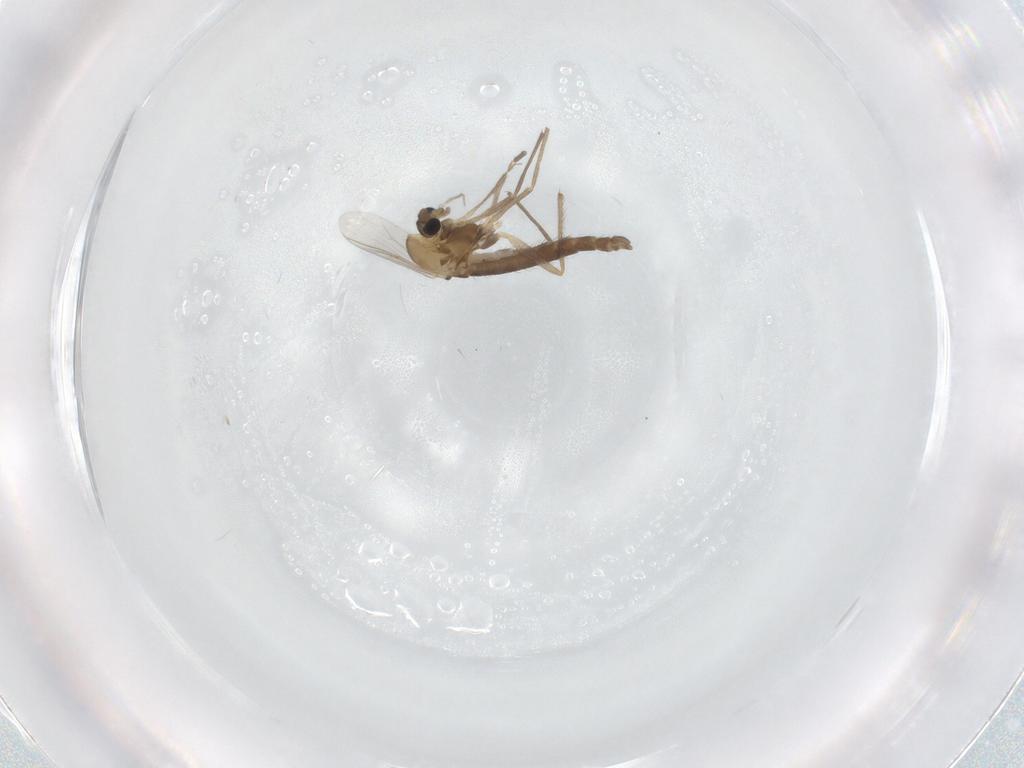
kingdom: Animalia
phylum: Arthropoda
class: Insecta
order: Diptera
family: Chironomidae
